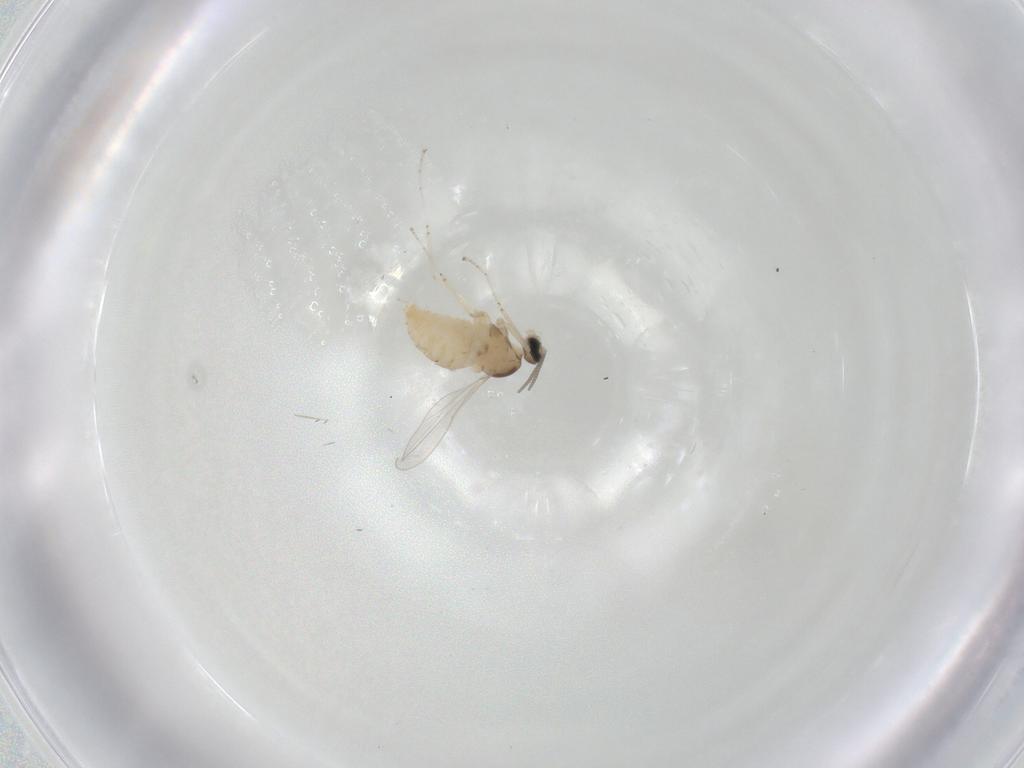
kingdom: Animalia
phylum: Arthropoda
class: Insecta
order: Diptera
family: Cecidomyiidae
